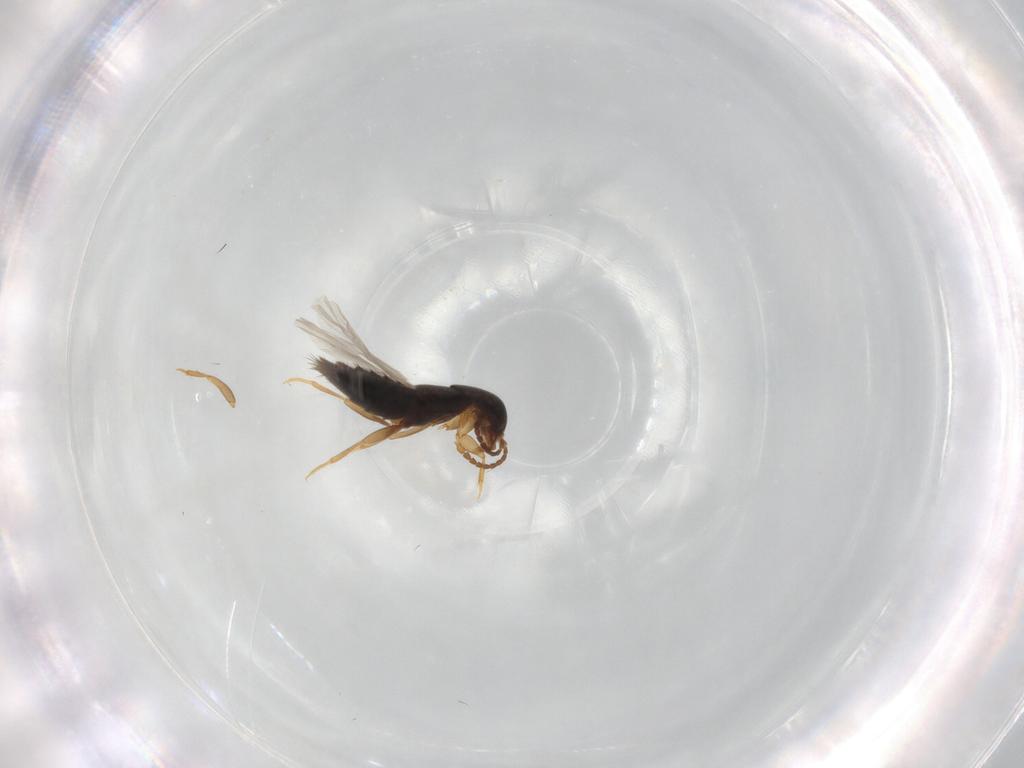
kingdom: Animalia
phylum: Arthropoda
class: Insecta
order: Coleoptera
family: Staphylinidae
